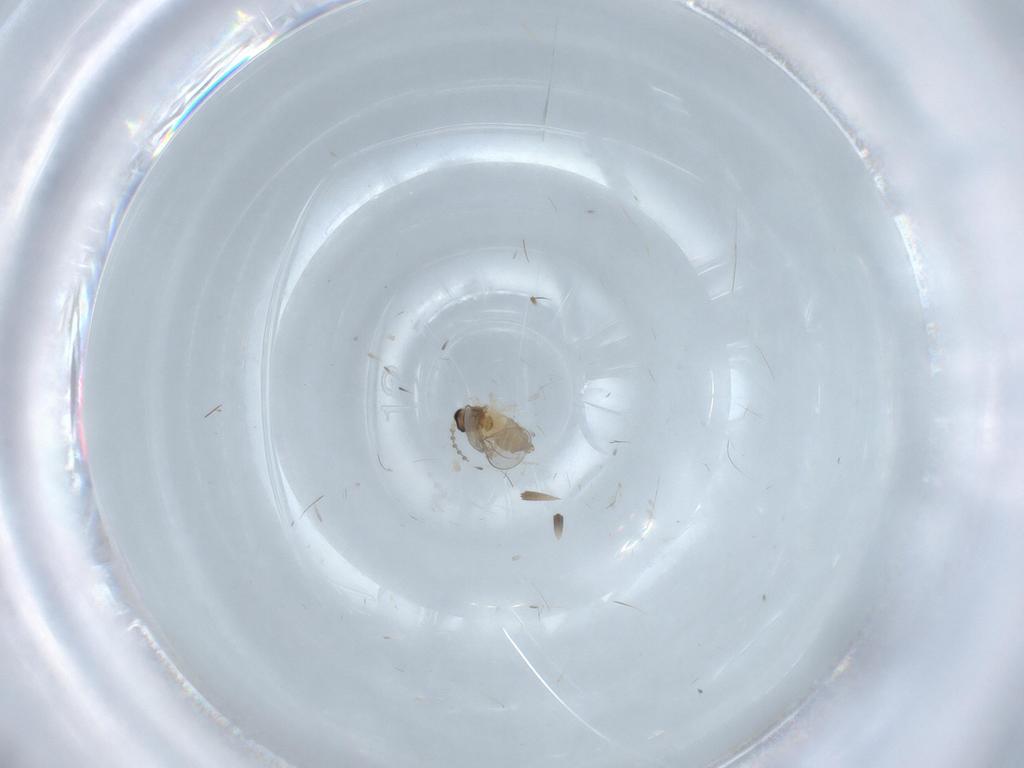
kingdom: Animalia
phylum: Arthropoda
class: Insecta
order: Diptera
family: Cecidomyiidae
